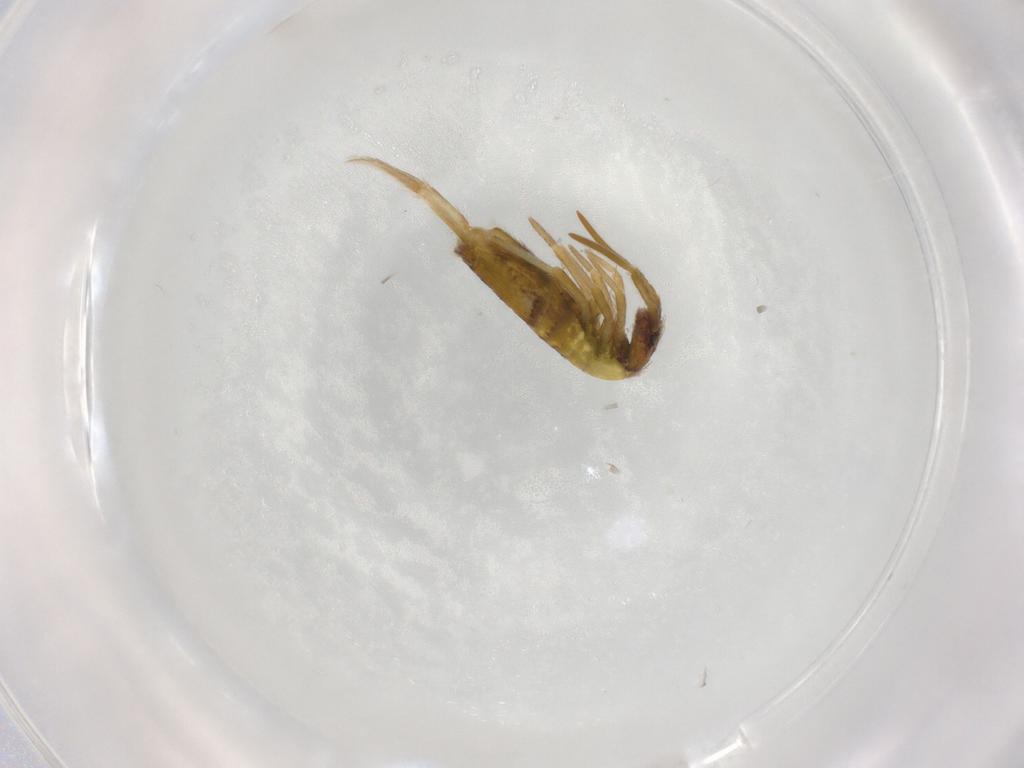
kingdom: Animalia
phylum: Arthropoda
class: Collembola
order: Entomobryomorpha
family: Entomobryidae
